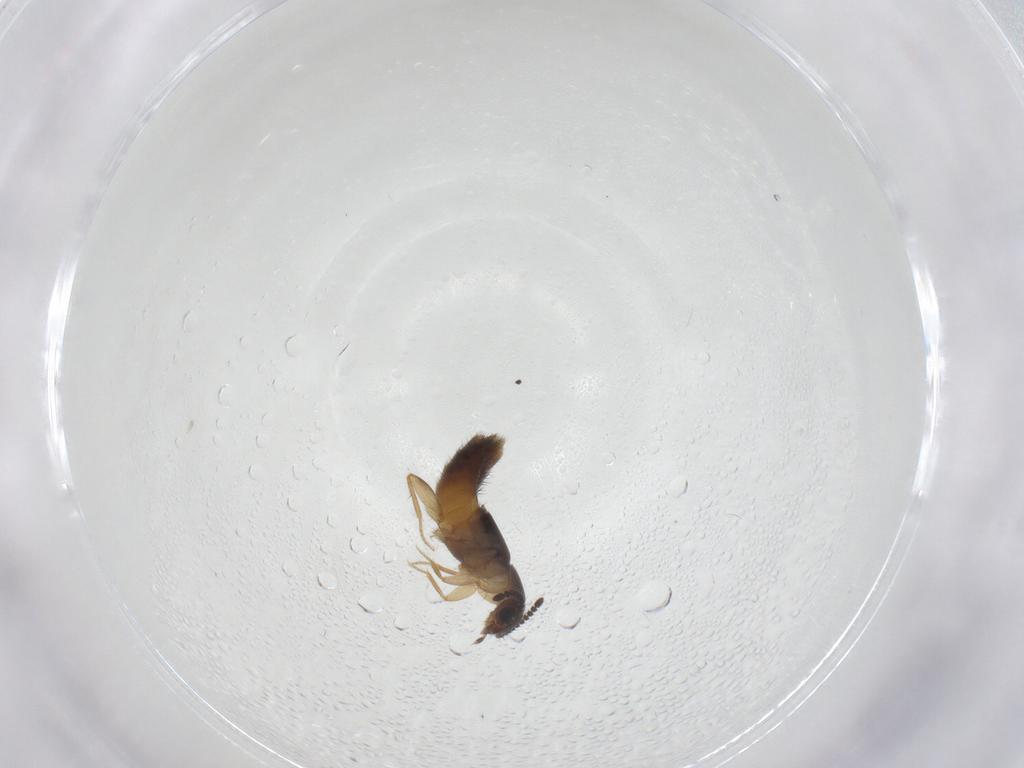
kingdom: Animalia
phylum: Arthropoda
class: Insecta
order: Coleoptera
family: Staphylinidae
